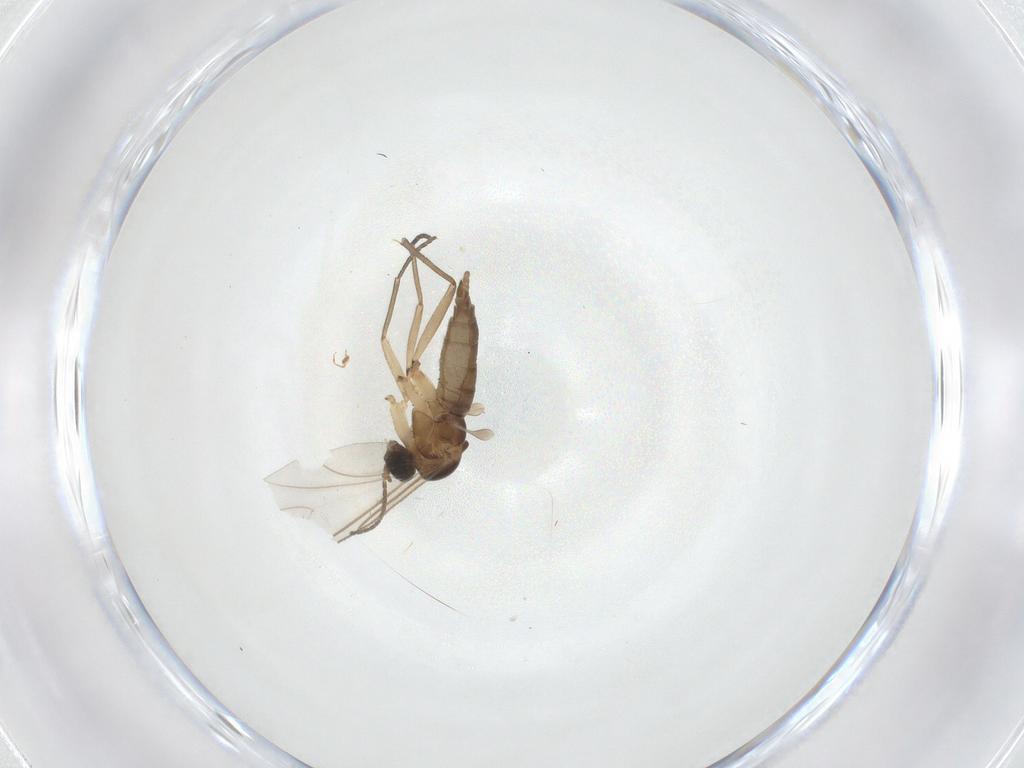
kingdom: Animalia
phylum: Arthropoda
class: Insecta
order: Diptera
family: Sciaridae
